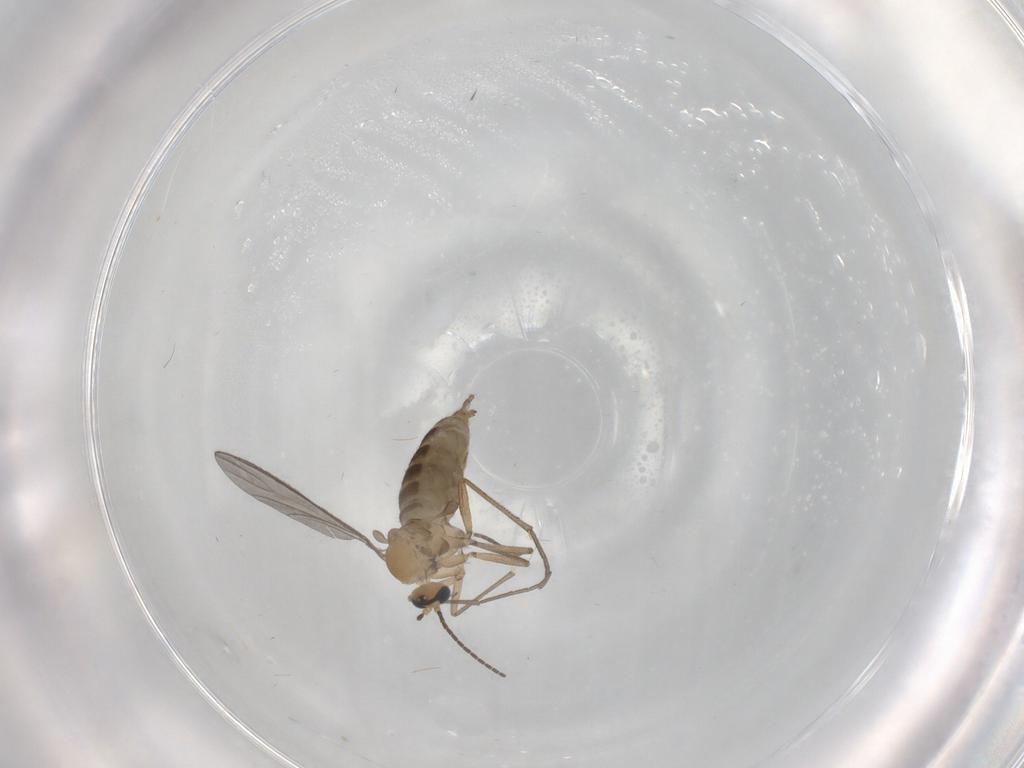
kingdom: Animalia
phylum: Arthropoda
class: Insecta
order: Diptera
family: Sciaridae
